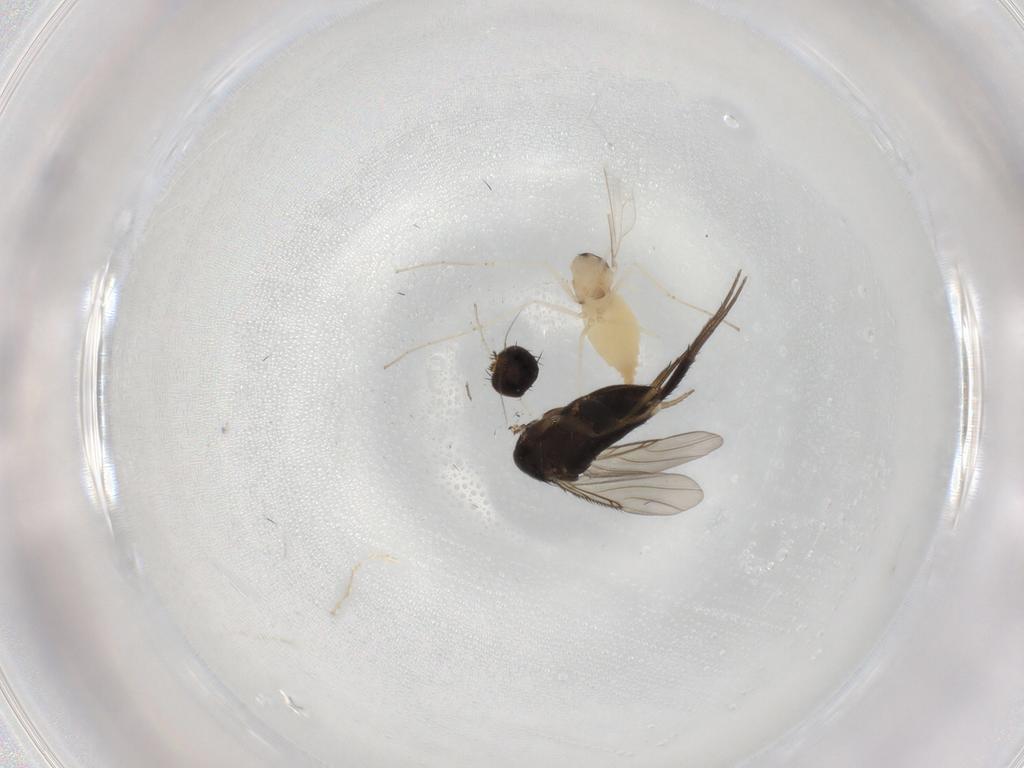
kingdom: Animalia
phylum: Arthropoda
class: Insecta
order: Diptera
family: Phoridae
